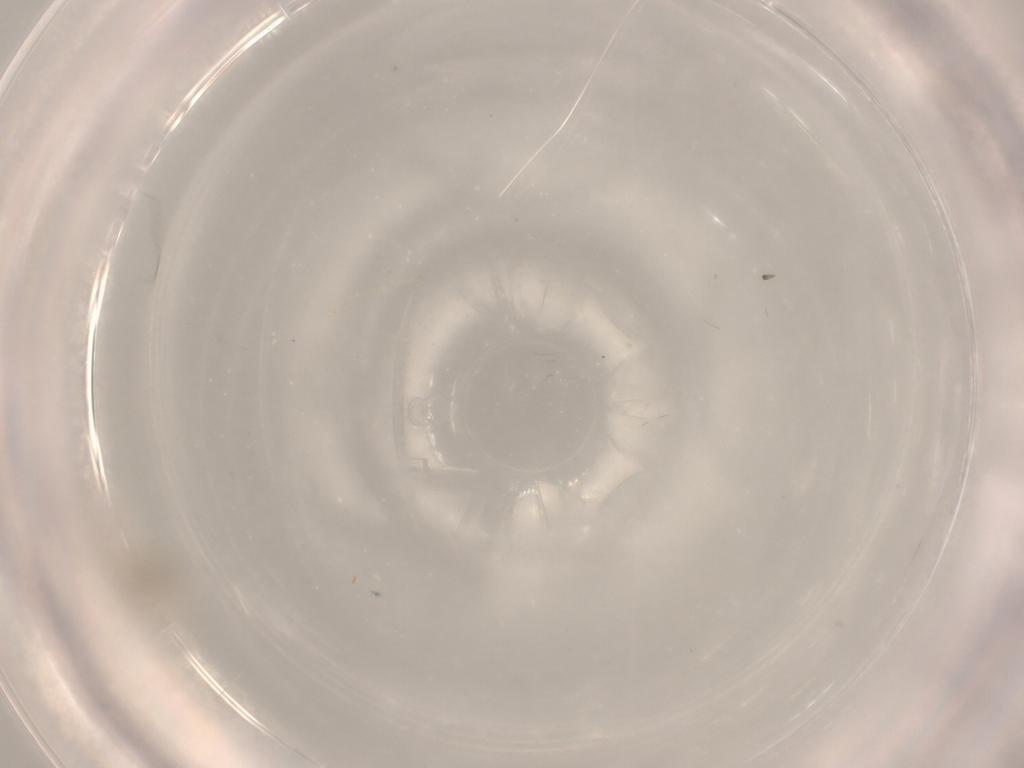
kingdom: Animalia
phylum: Arthropoda
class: Insecta
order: Diptera
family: Cecidomyiidae
